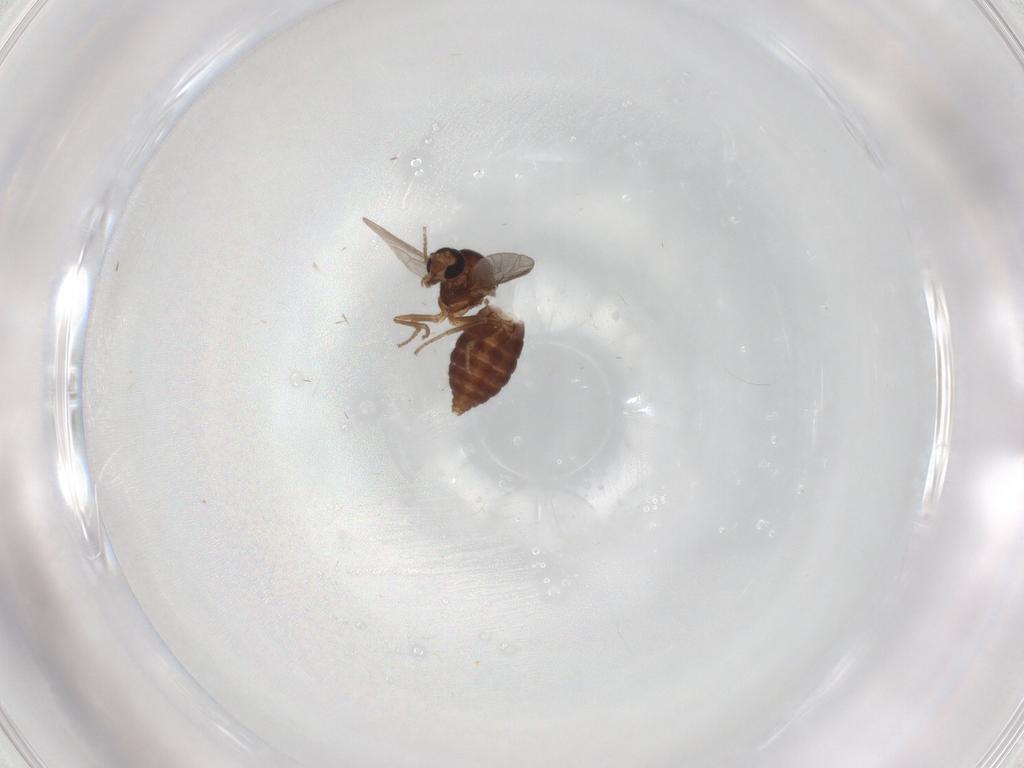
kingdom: Animalia
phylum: Arthropoda
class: Insecta
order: Diptera
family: Ceratopogonidae
